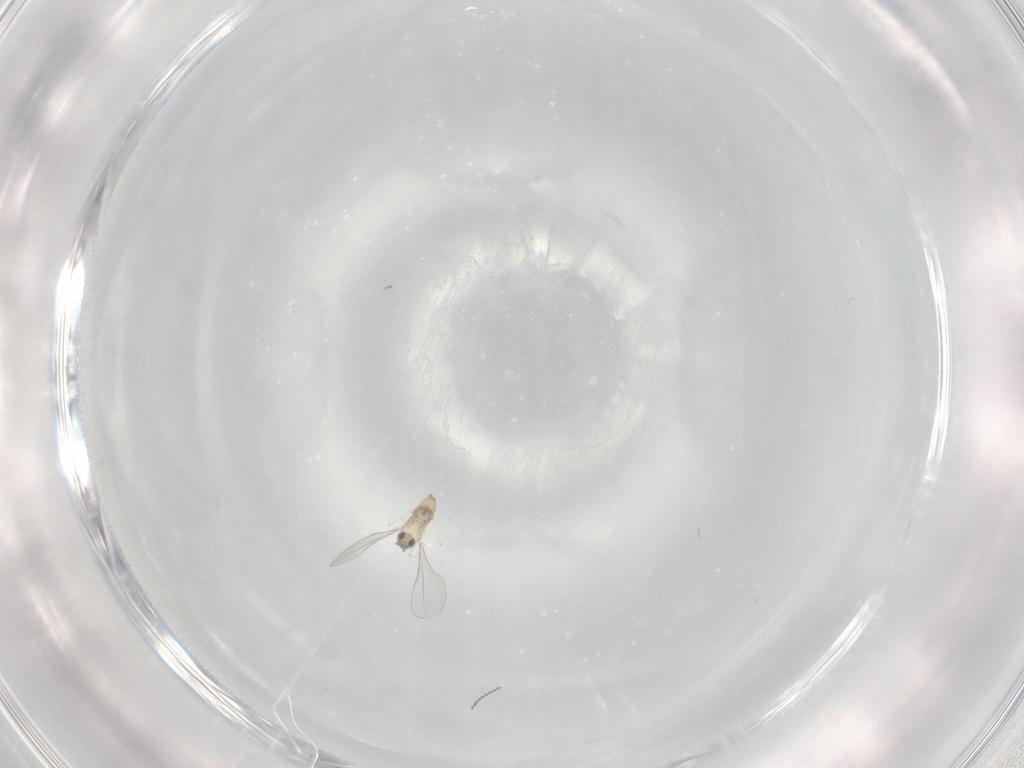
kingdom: Animalia
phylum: Arthropoda
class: Insecta
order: Diptera
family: Cecidomyiidae
